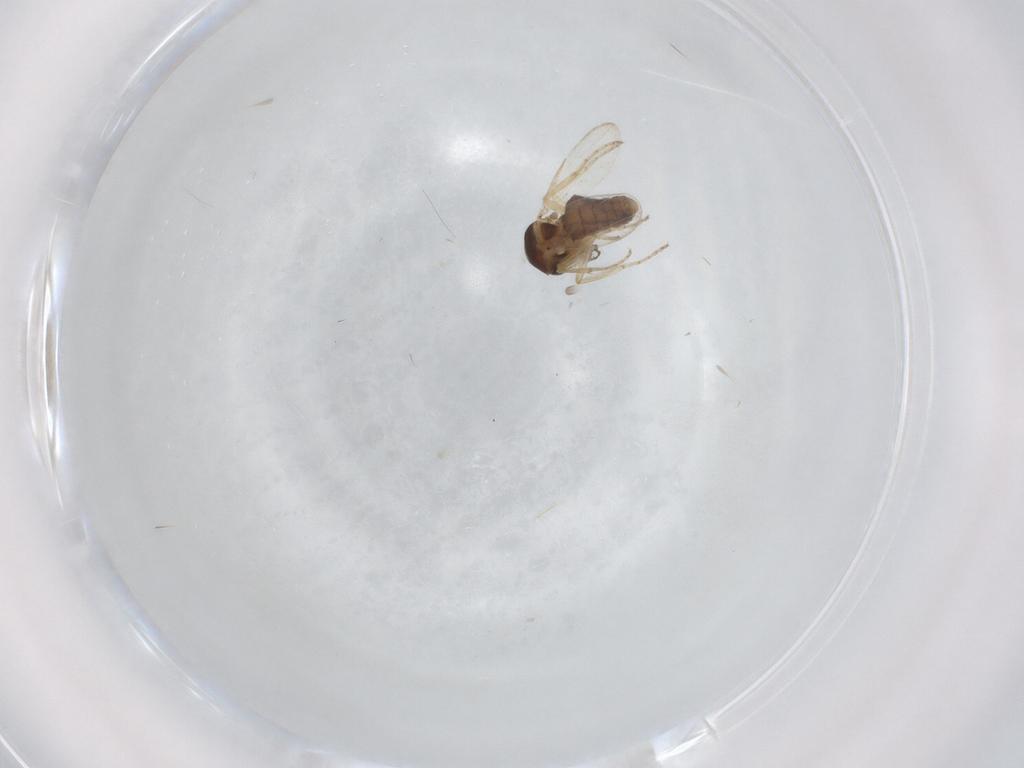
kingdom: Animalia
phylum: Arthropoda
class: Insecta
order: Diptera
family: Ceratopogonidae
